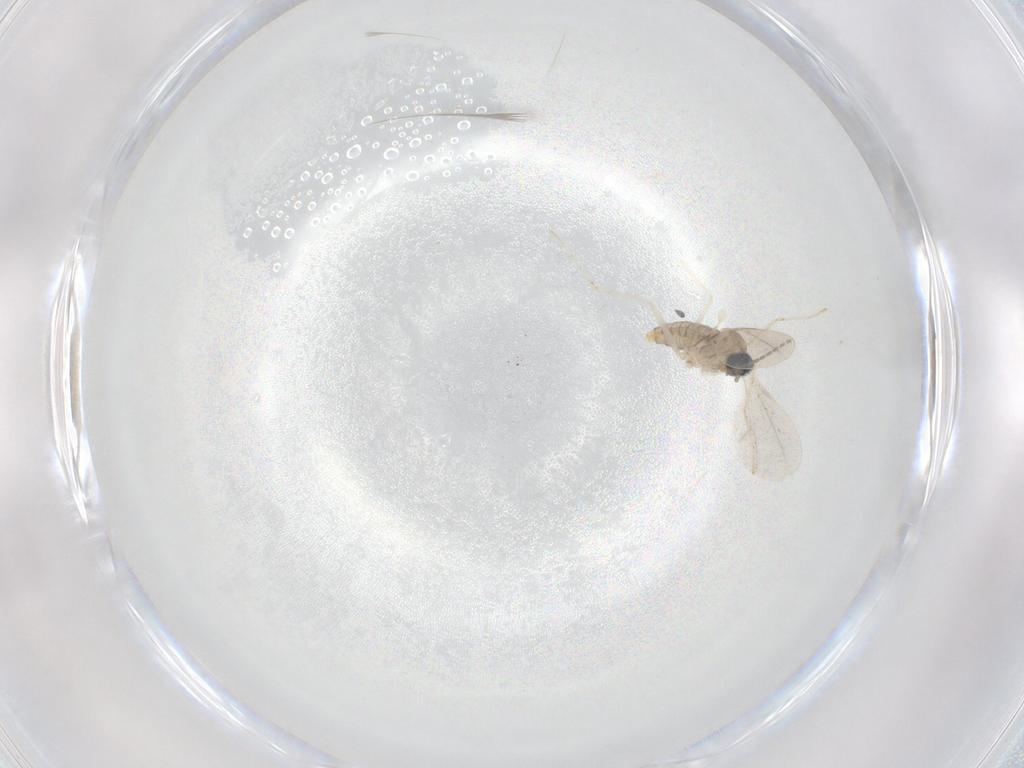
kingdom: Animalia
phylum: Arthropoda
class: Insecta
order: Diptera
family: Cecidomyiidae
